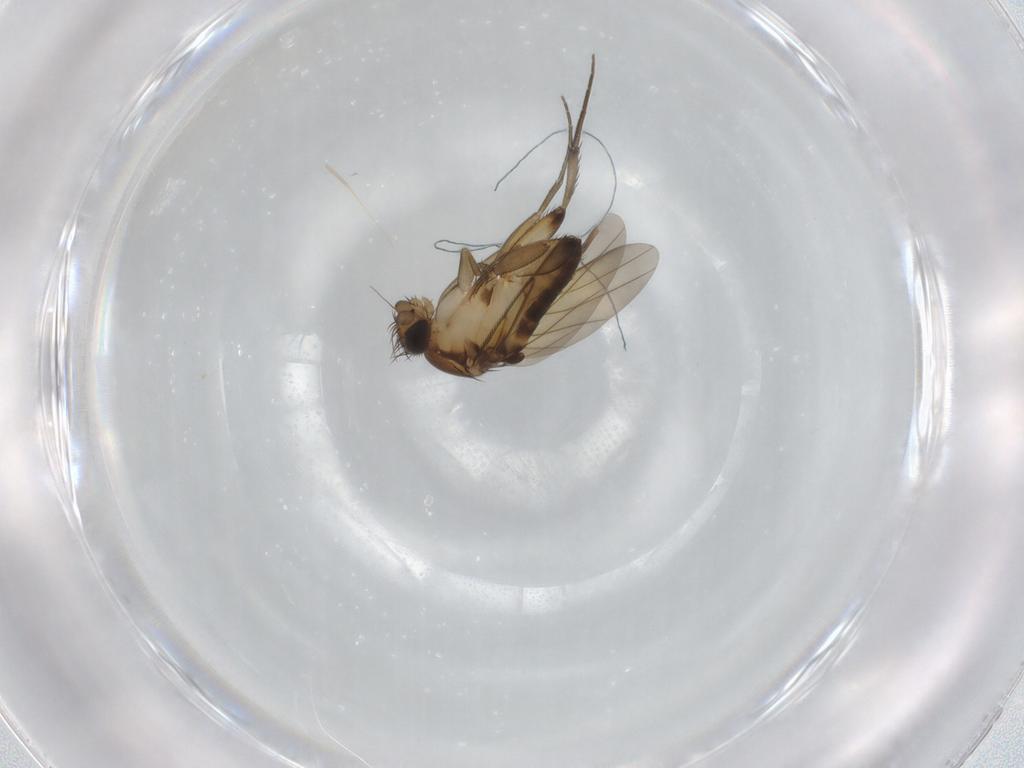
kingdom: Animalia
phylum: Arthropoda
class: Insecta
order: Diptera
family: Phoridae
